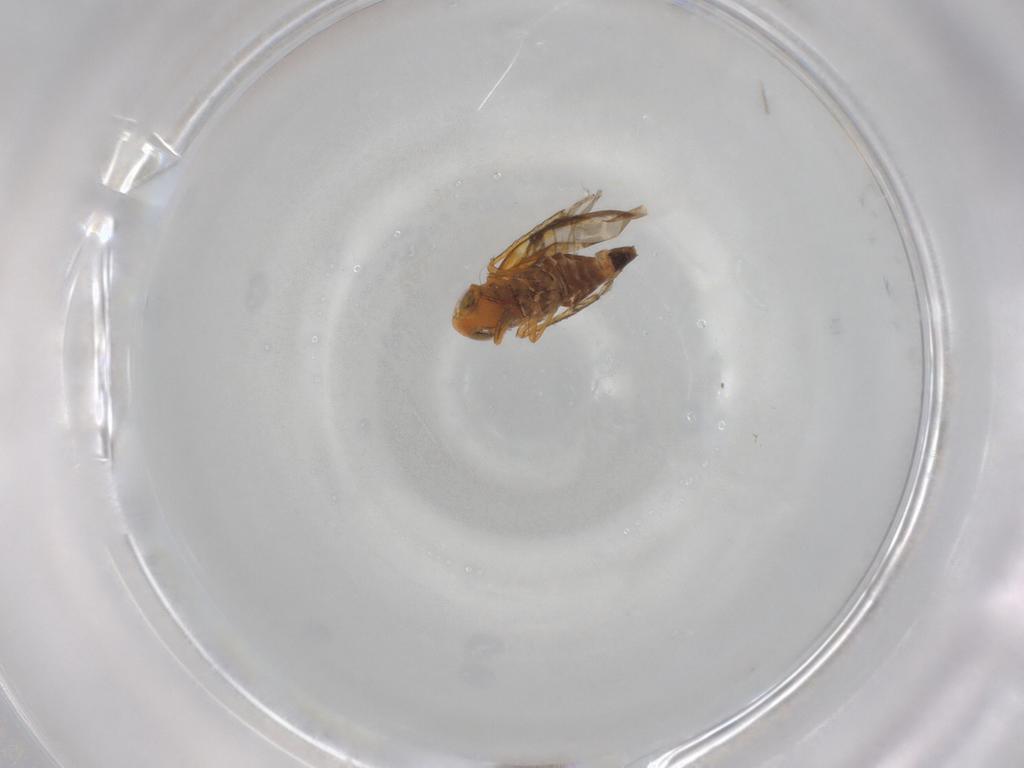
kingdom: Animalia
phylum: Arthropoda
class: Insecta
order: Hemiptera
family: Cicadellidae
